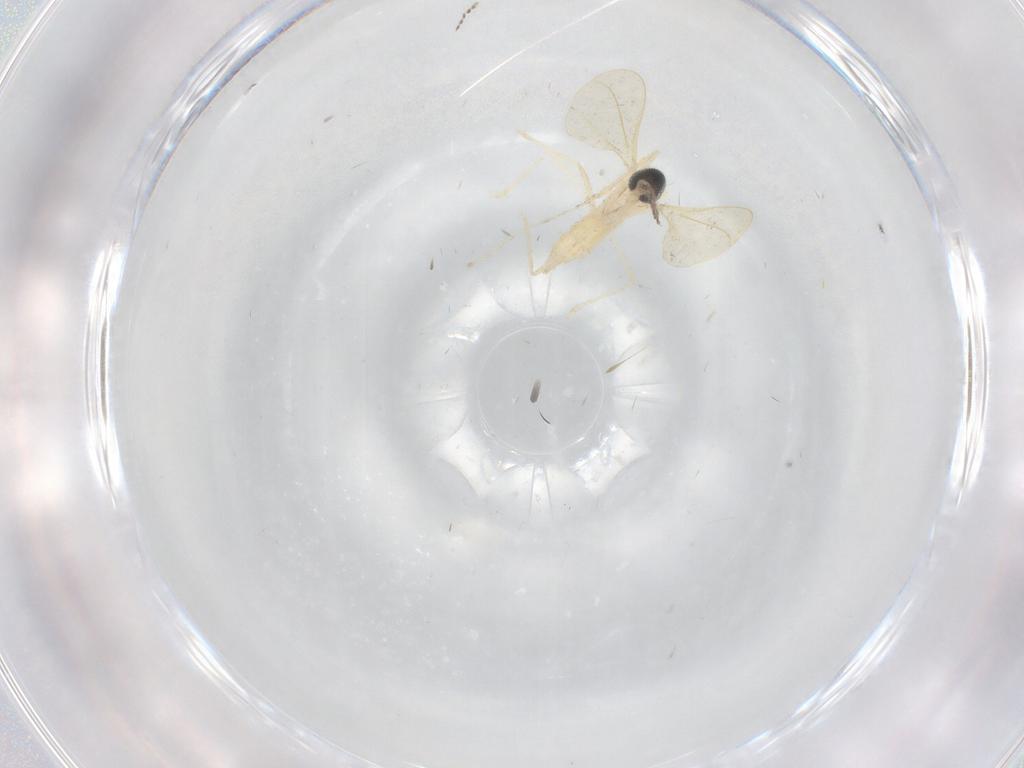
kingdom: Animalia
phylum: Arthropoda
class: Insecta
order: Diptera
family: Cecidomyiidae
